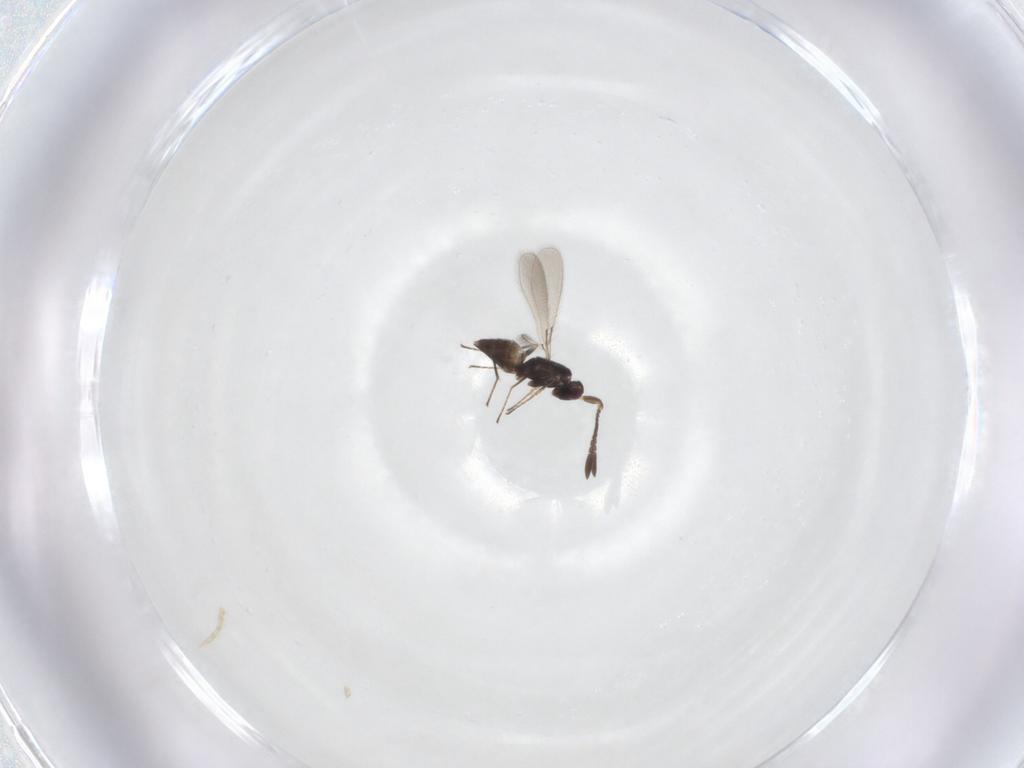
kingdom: Animalia
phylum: Arthropoda
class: Insecta
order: Hymenoptera
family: Mymaridae
